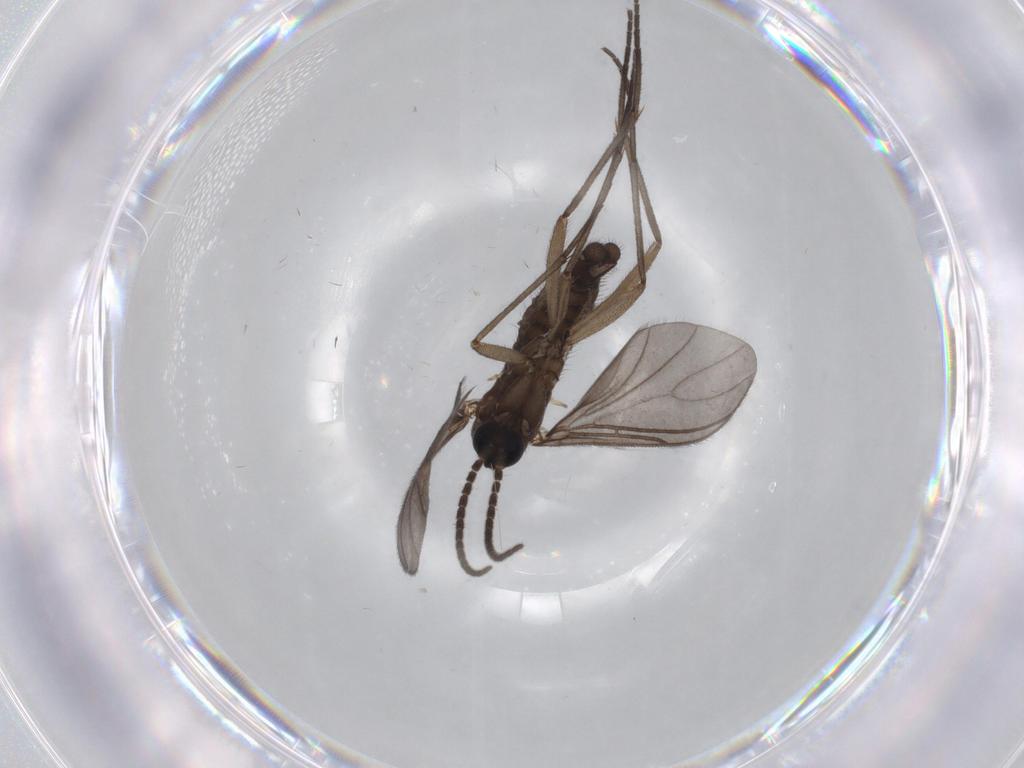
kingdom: Animalia
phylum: Arthropoda
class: Insecta
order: Diptera
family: Sciaridae
